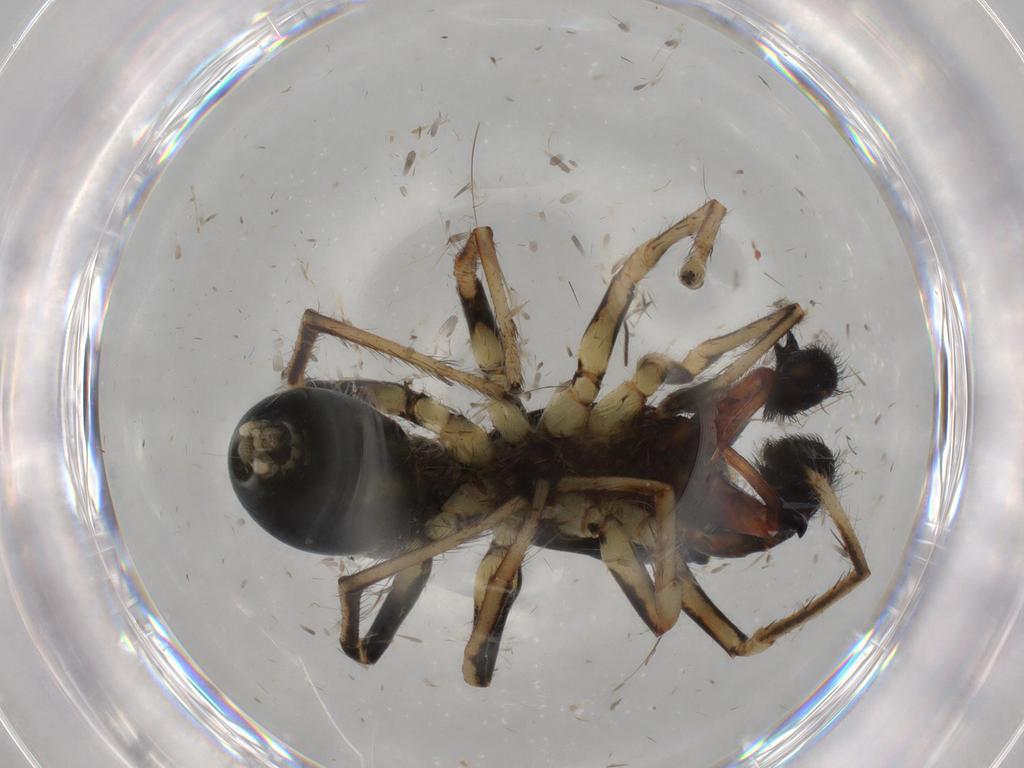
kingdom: Animalia
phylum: Arthropoda
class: Arachnida
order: Araneae
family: Salticidae
